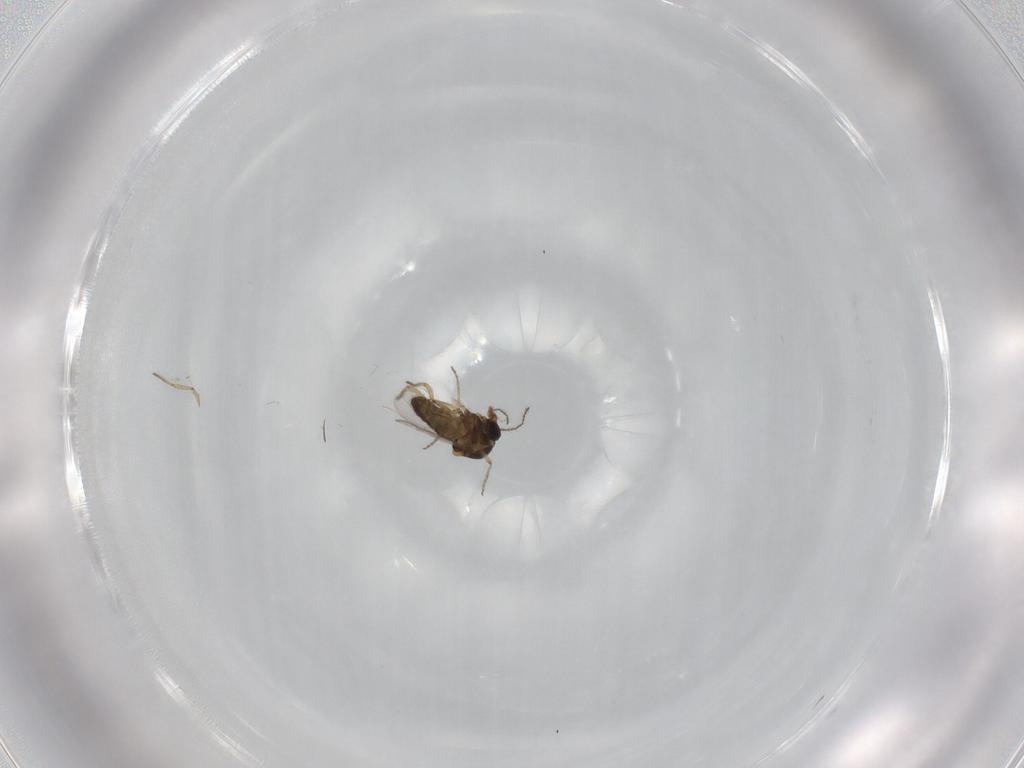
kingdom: Animalia
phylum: Arthropoda
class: Insecta
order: Diptera
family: Ceratopogonidae
